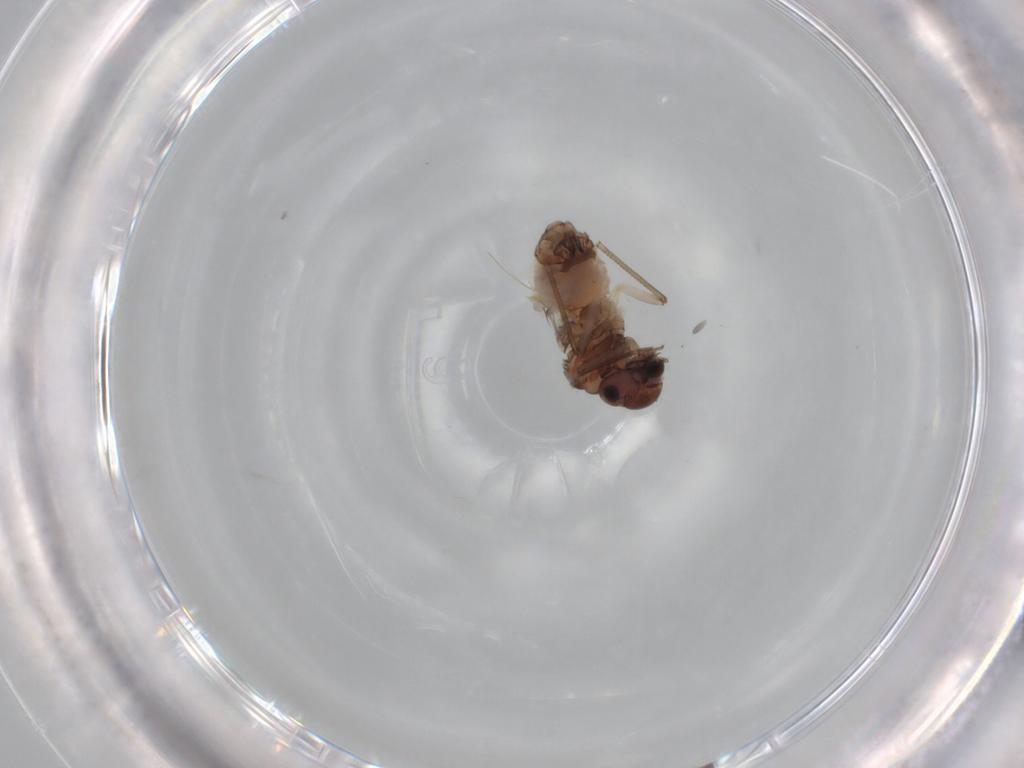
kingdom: Animalia
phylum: Arthropoda
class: Insecta
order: Psocodea
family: Peripsocidae
